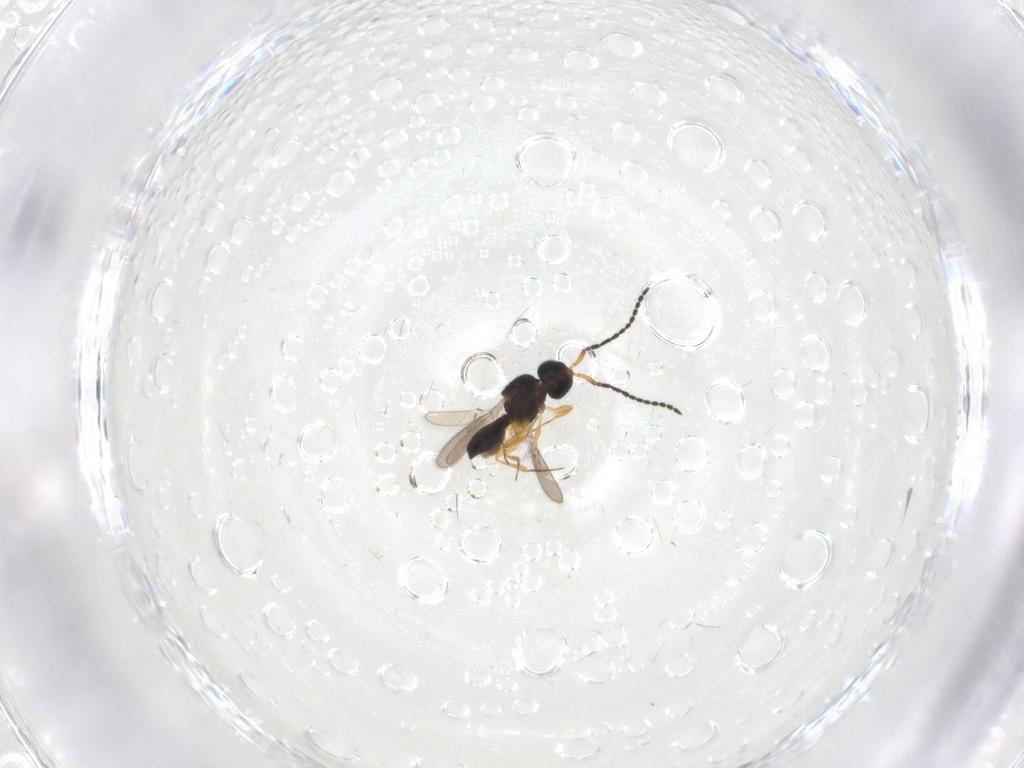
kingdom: Animalia
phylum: Arthropoda
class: Insecta
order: Hymenoptera
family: Scelionidae
